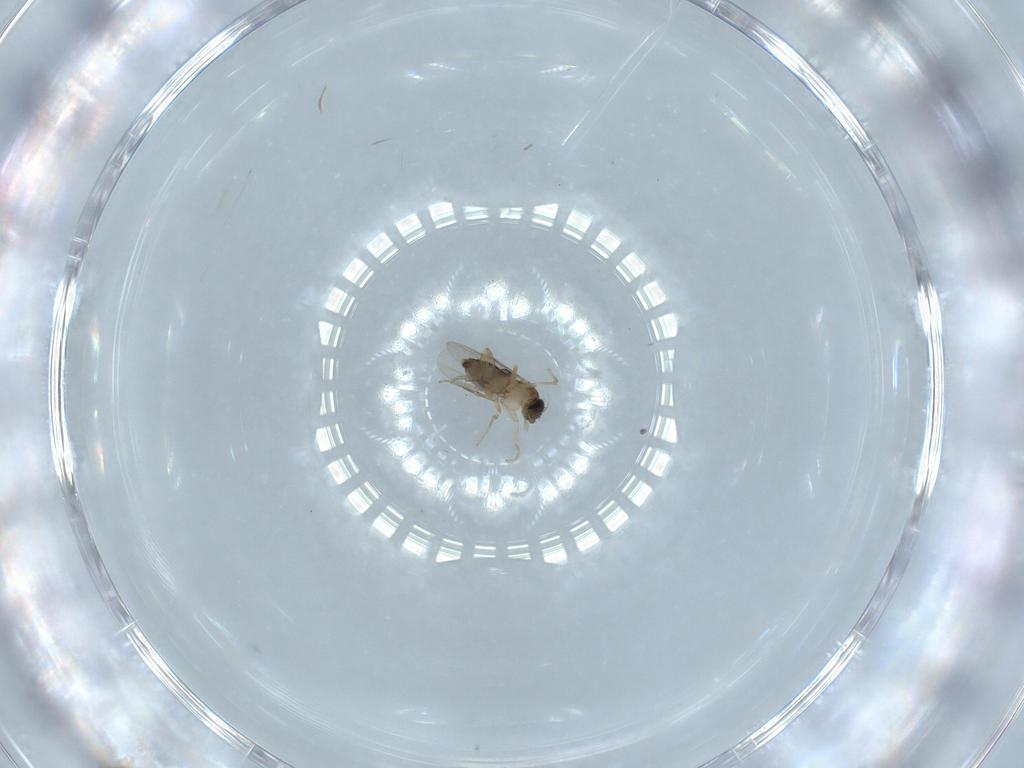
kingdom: Animalia
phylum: Arthropoda
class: Insecta
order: Diptera
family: Phoridae
